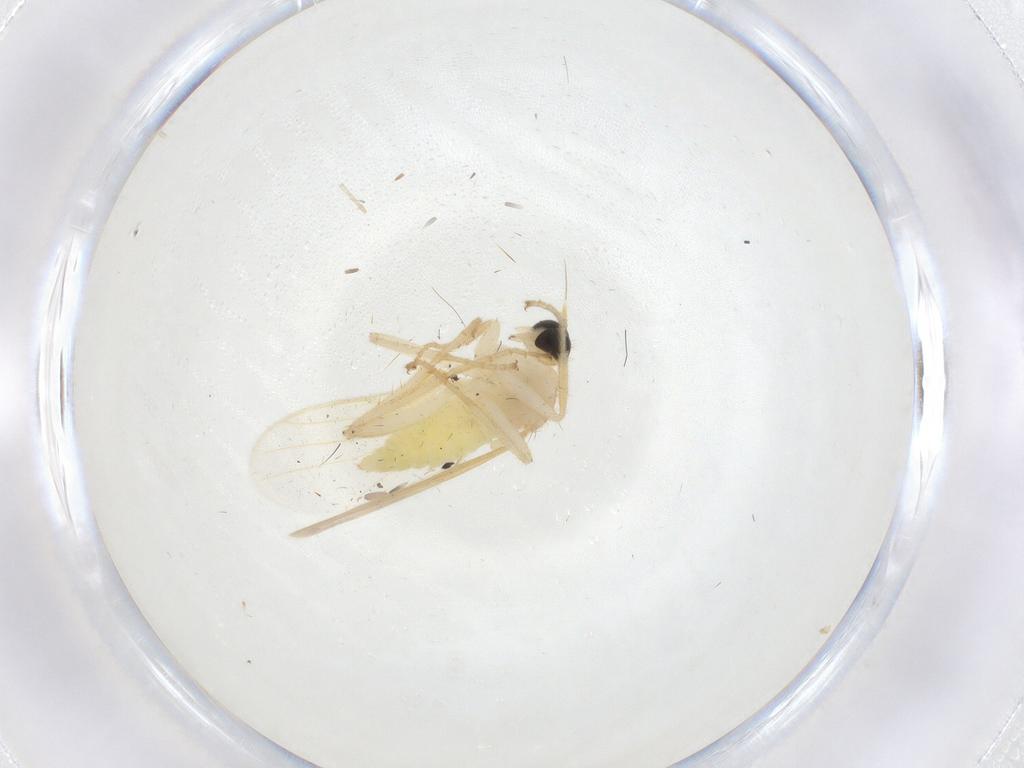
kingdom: Animalia
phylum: Arthropoda
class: Insecta
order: Diptera
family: Hybotidae
